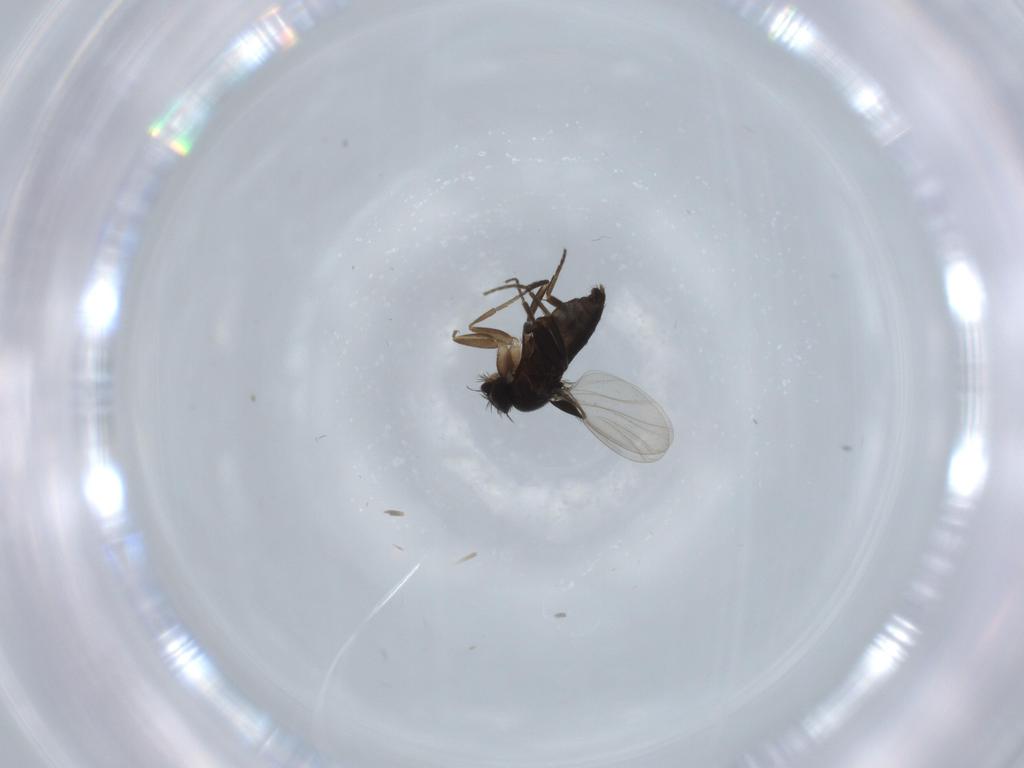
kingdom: Animalia
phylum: Arthropoda
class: Insecta
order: Diptera
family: Phoridae
